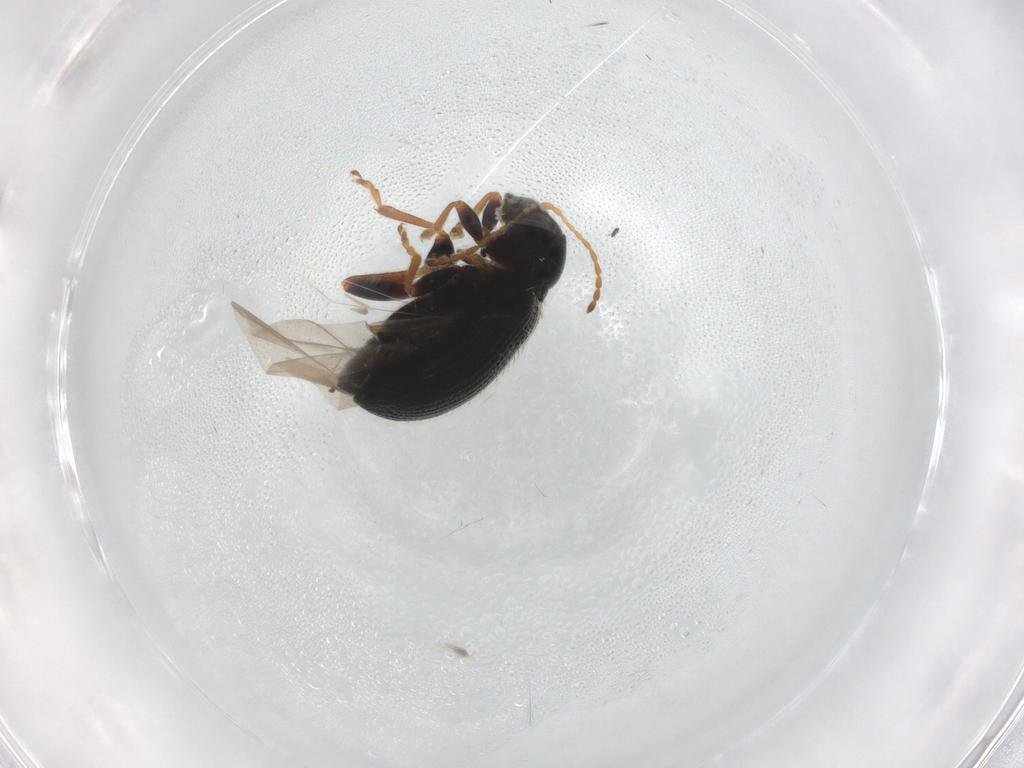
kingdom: Animalia
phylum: Arthropoda
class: Insecta
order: Coleoptera
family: Chrysomelidae
